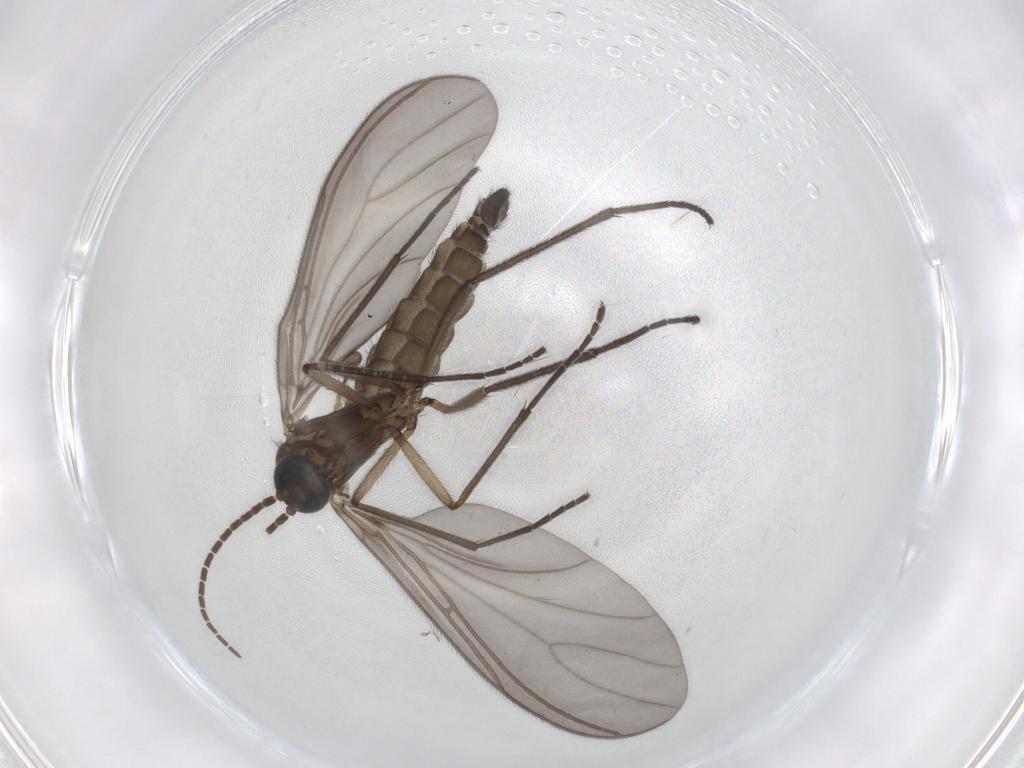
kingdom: Animalia
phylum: Arthropoda
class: Insecta
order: Diptera
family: Sciaridae
